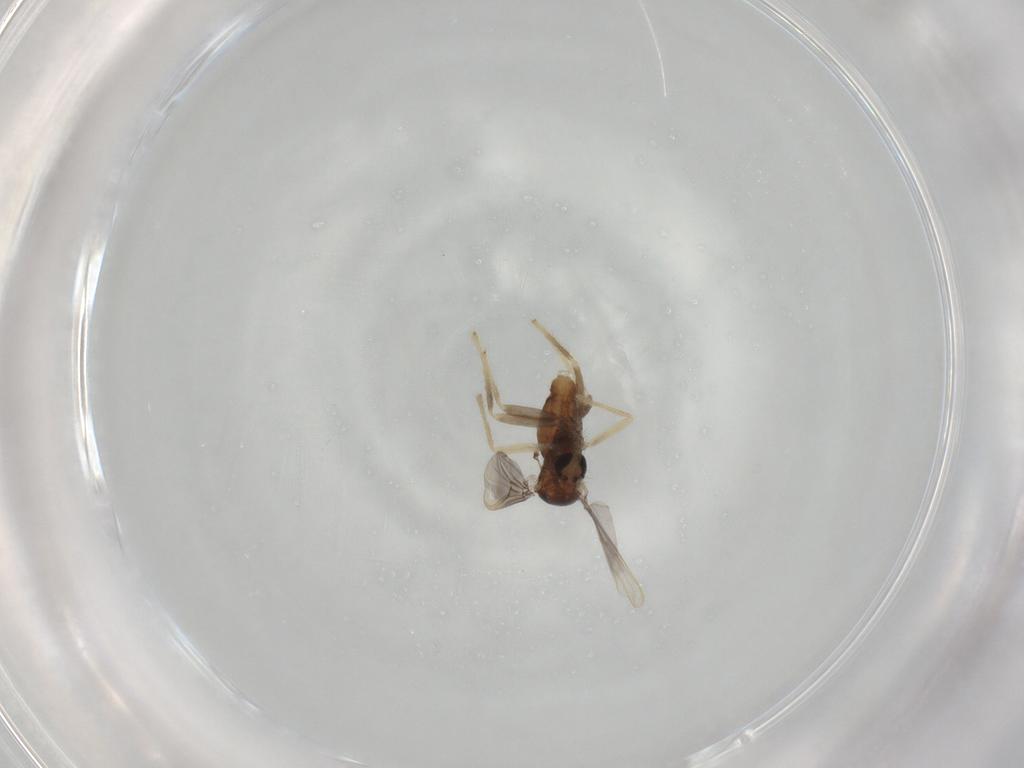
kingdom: Animalia
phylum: Arthropoda
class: Insecta
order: Diptera
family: Chironomidae
